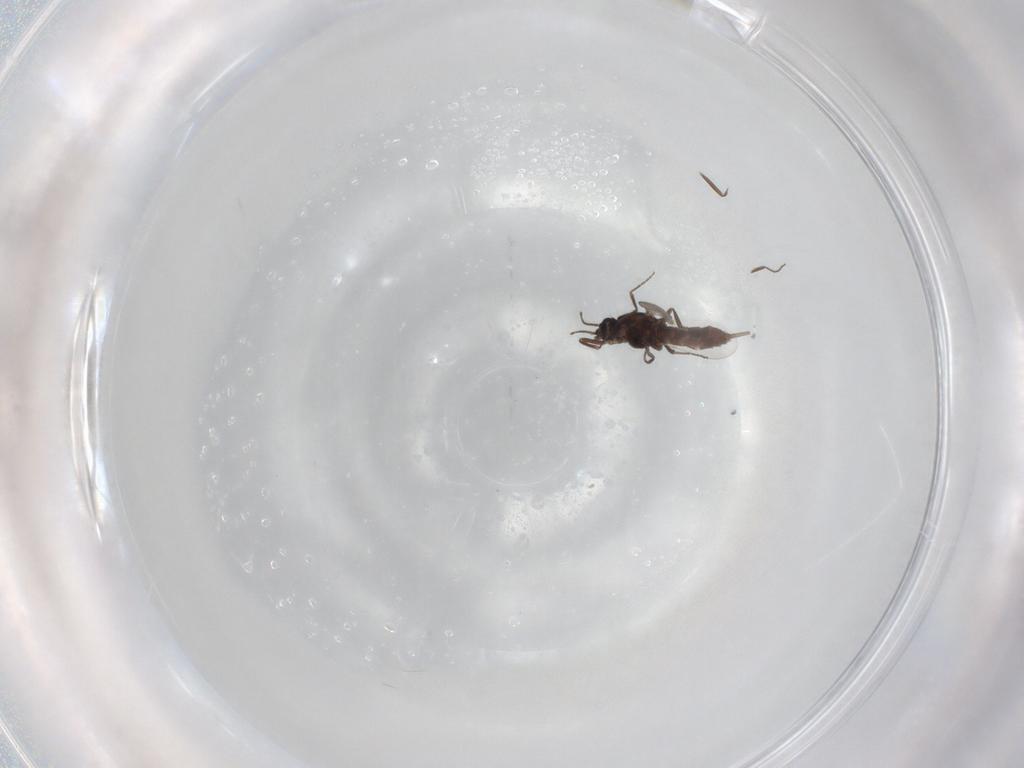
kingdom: Animalia
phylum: Arthropoda
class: Insecta
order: Diptera
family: Ceratopogonidae
